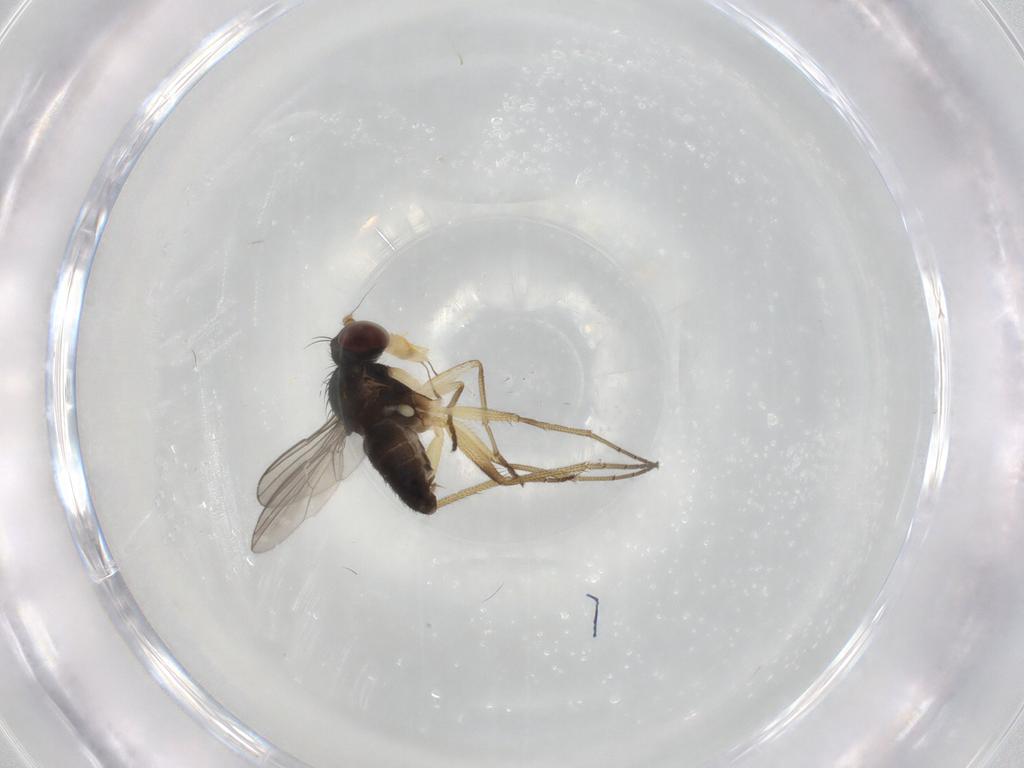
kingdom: Animalia
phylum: Arthropoda
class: Insecta
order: Diptera
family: Dolichopodidae
